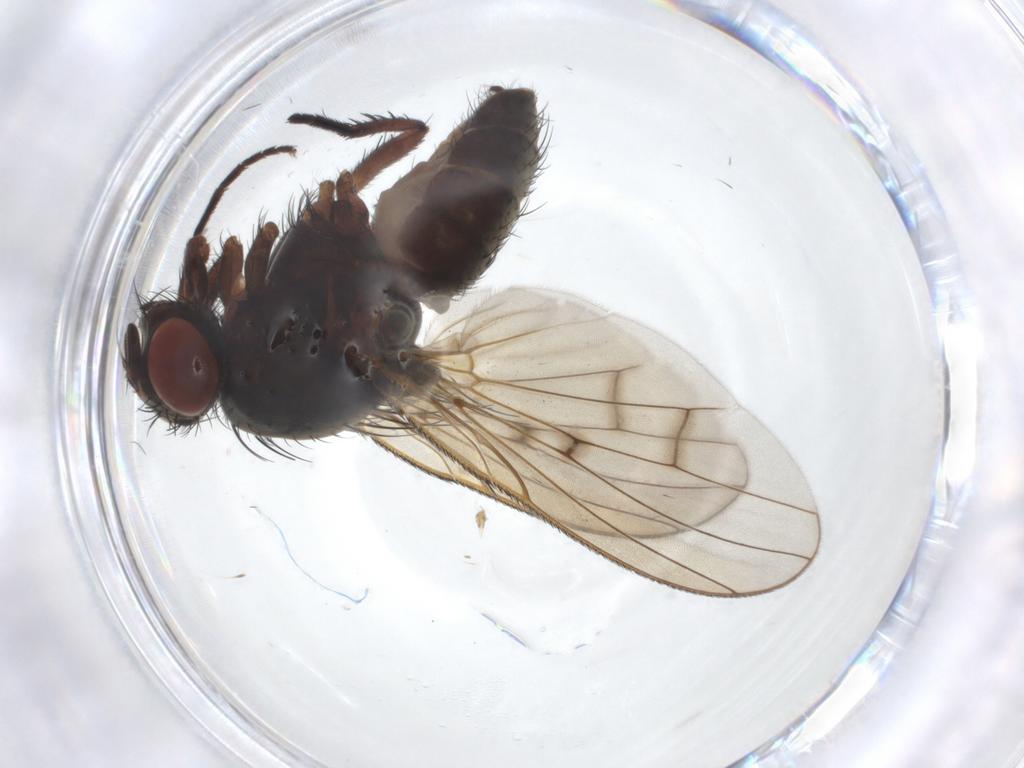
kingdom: Animalia
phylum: Arthropoda
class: Insecta
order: Diptera
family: Anthomyiidae
